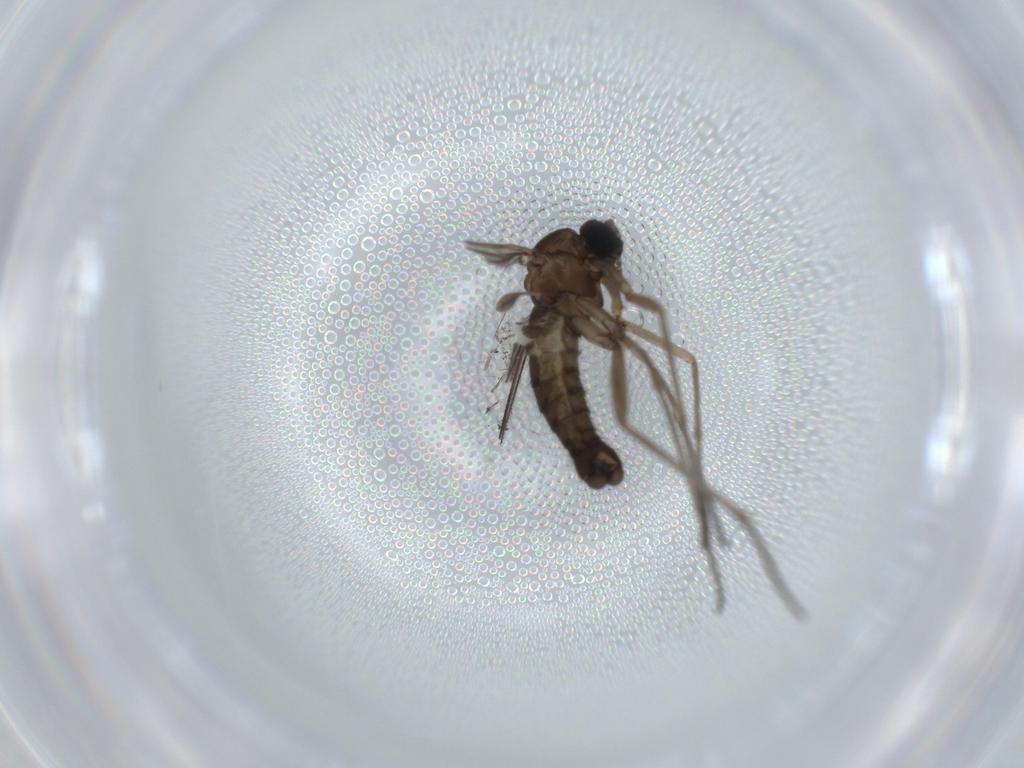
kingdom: Animalia
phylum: Arthropoda
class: Insecta
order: Diptera
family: Sciaridae
